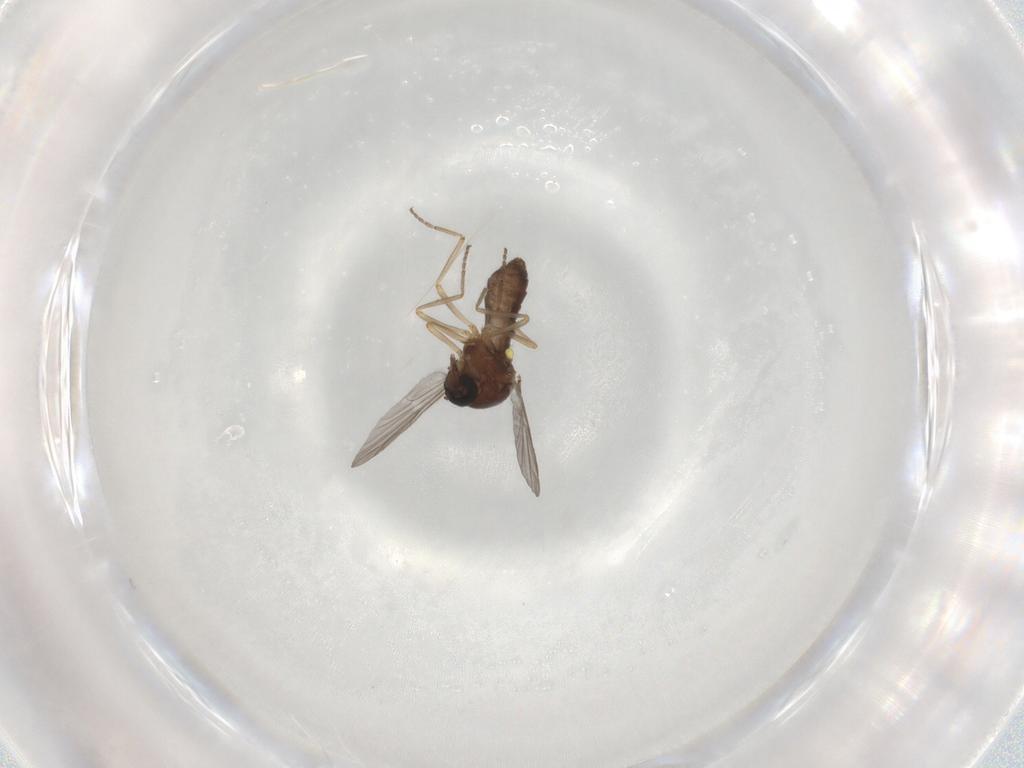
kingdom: Animalia
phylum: Arthropoda
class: Insecta
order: Diptera
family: Ceratopogonidae
